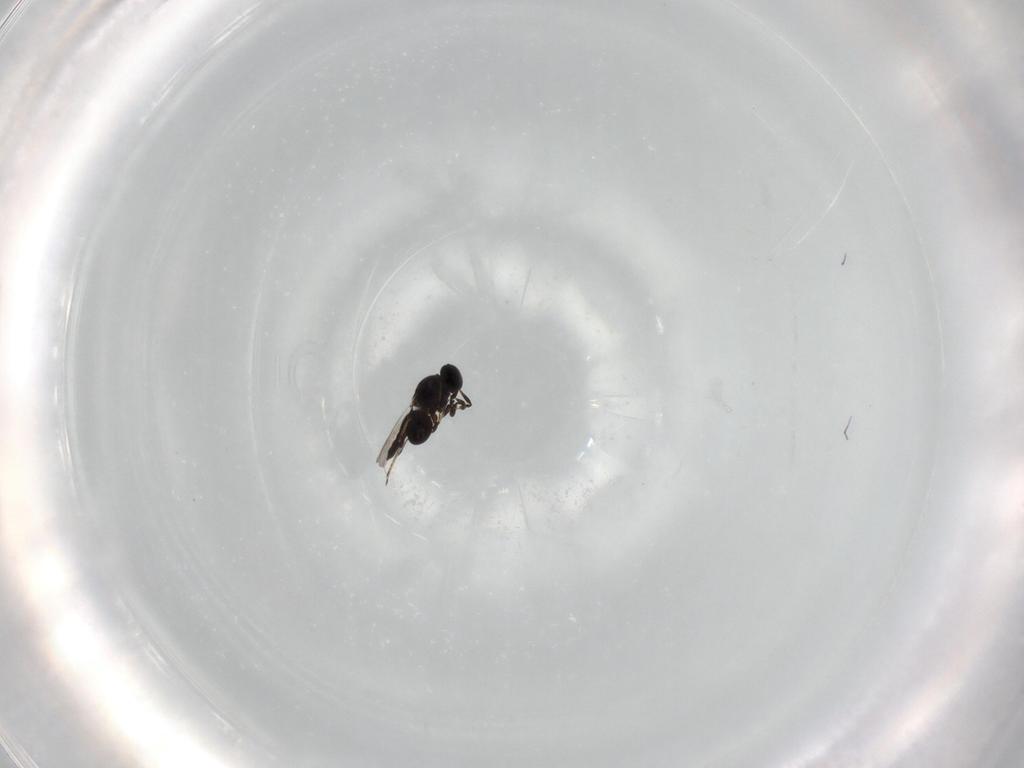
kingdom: Animalia
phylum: Arthropoda
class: Insecta
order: Hymenoptera
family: Platygastridae
